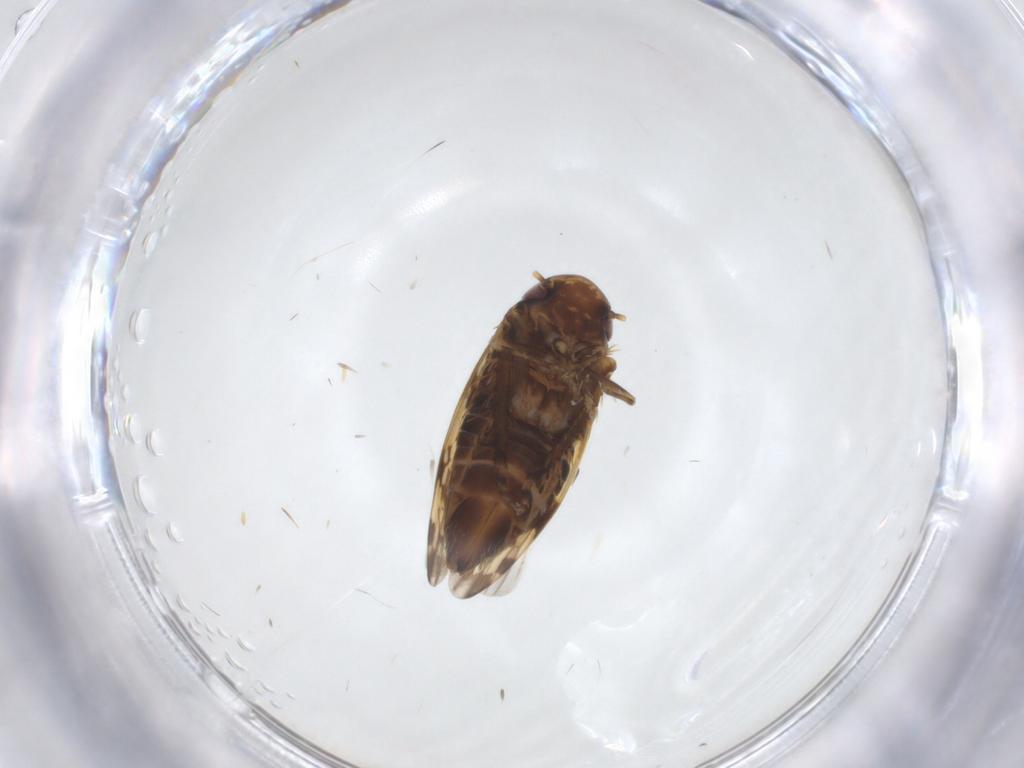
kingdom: Animalia
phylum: Arthropoda
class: Insecta
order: Hemiptera
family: Cicadellidae
